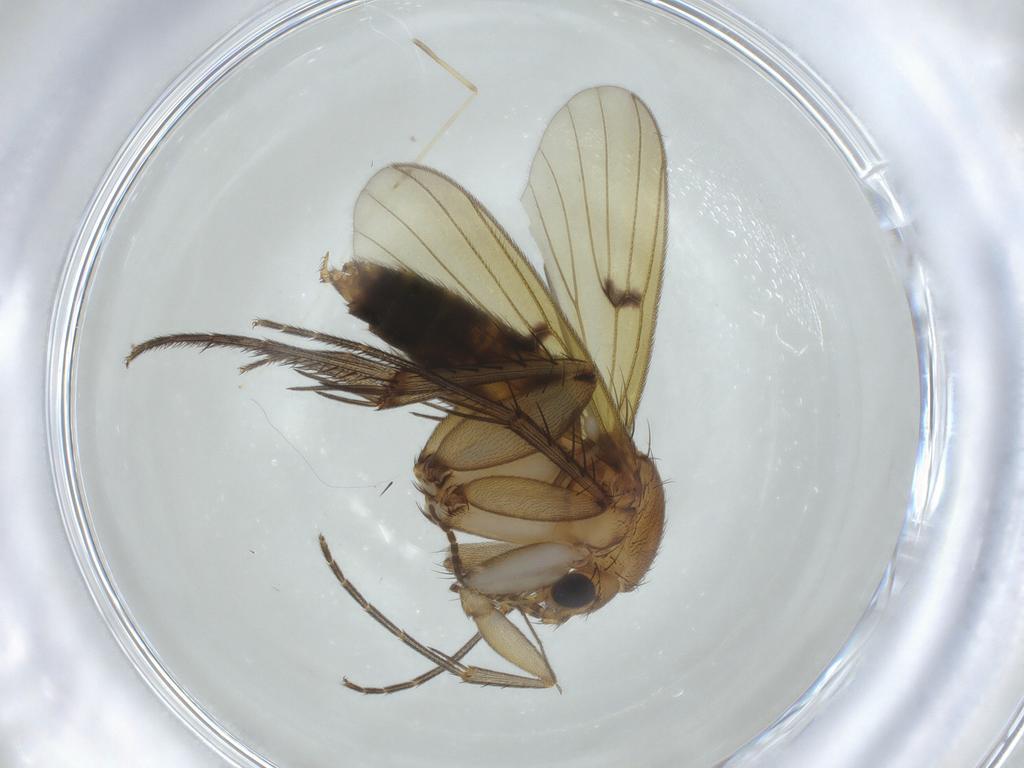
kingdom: Animalia
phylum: Arthropoda
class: Insecta
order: Diptera
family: Mycetophilidae
